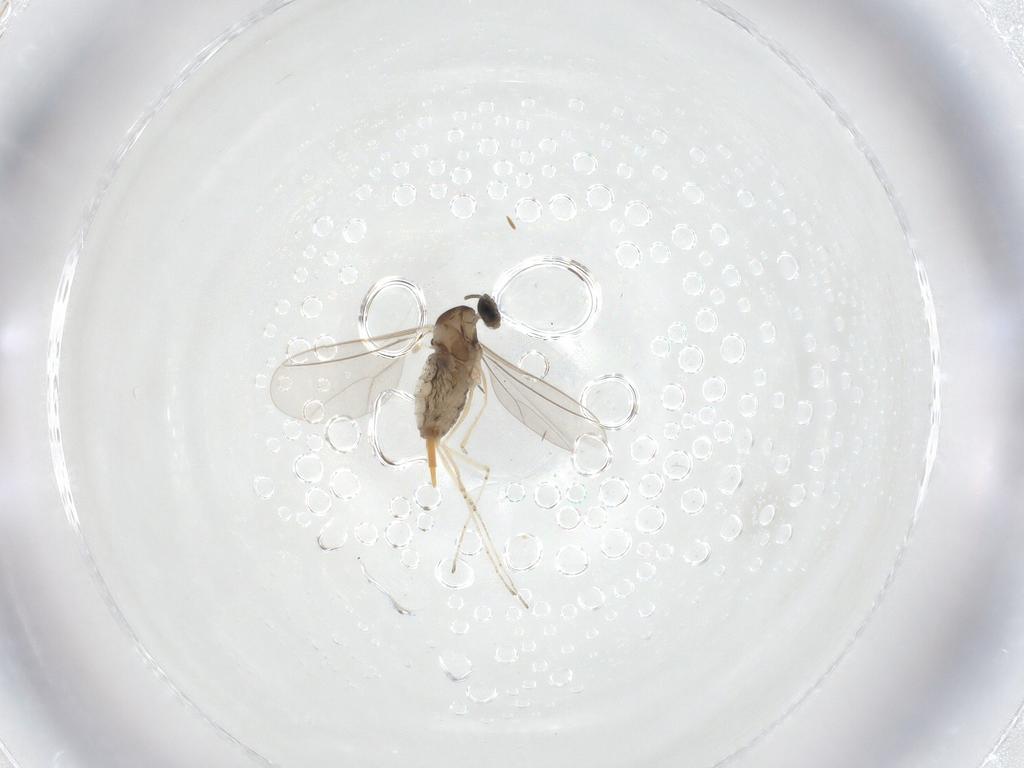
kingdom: Animalia
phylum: Arthropoda
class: Insecta
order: Diptera
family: Cecidomyiidae
